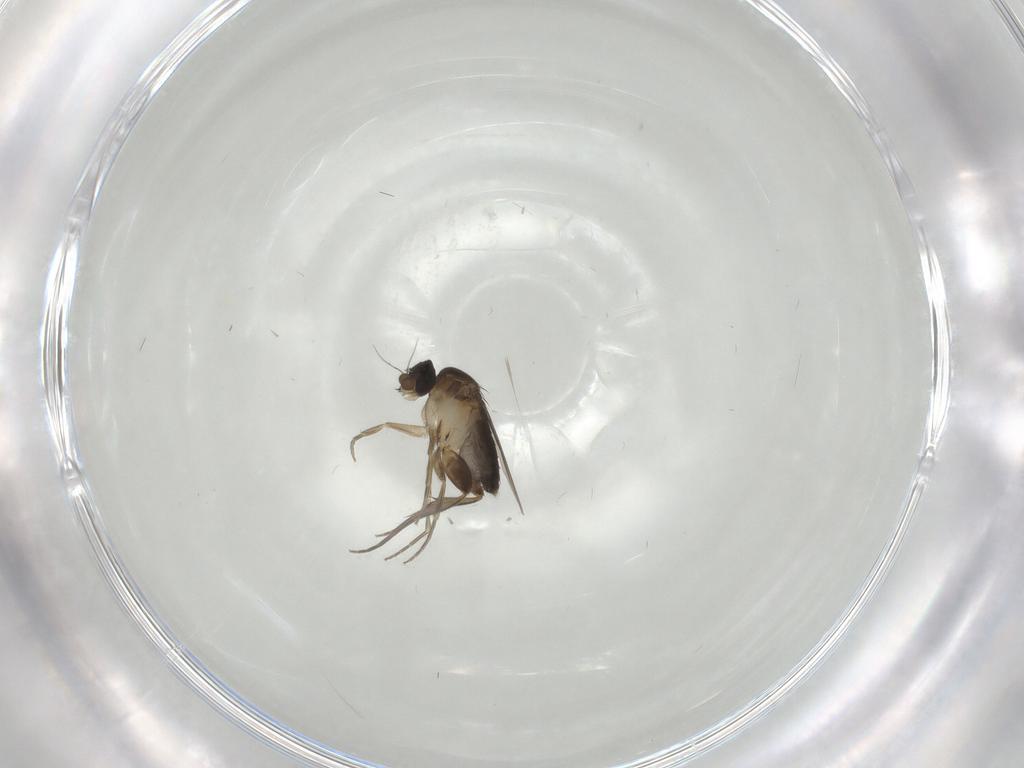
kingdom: Animalia
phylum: Arthropoda
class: Insecta
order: Diptera
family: Phoridae
